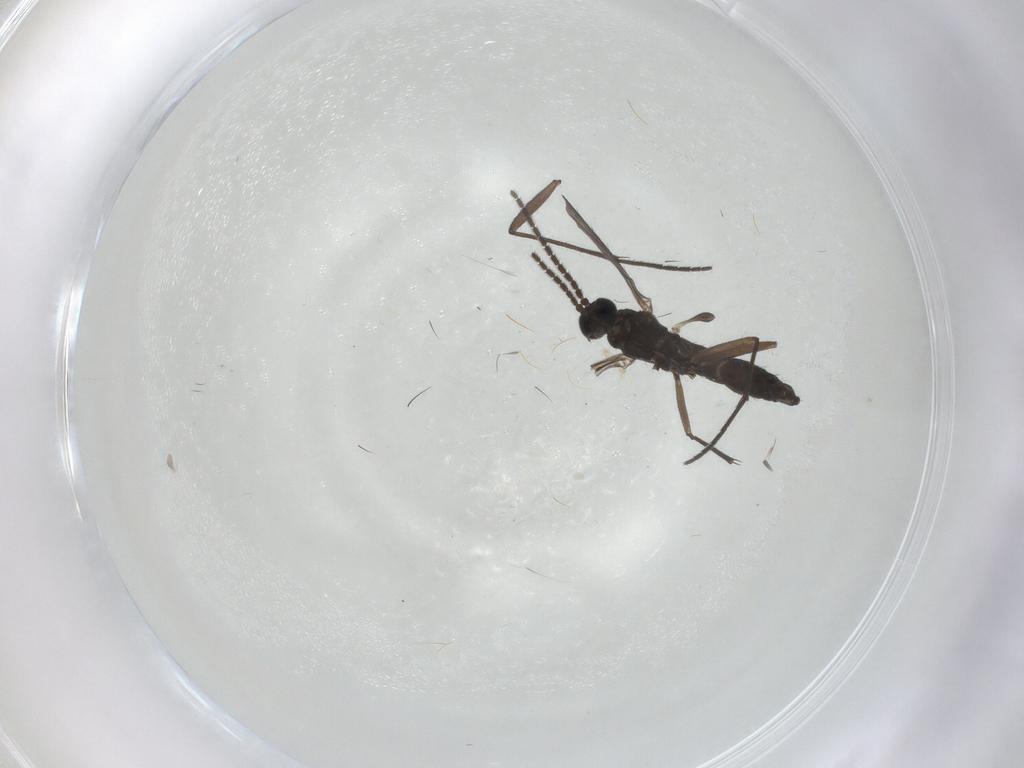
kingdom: Animalia
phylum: Arthropoda
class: Insecta
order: Diptera
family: Sciaridae
